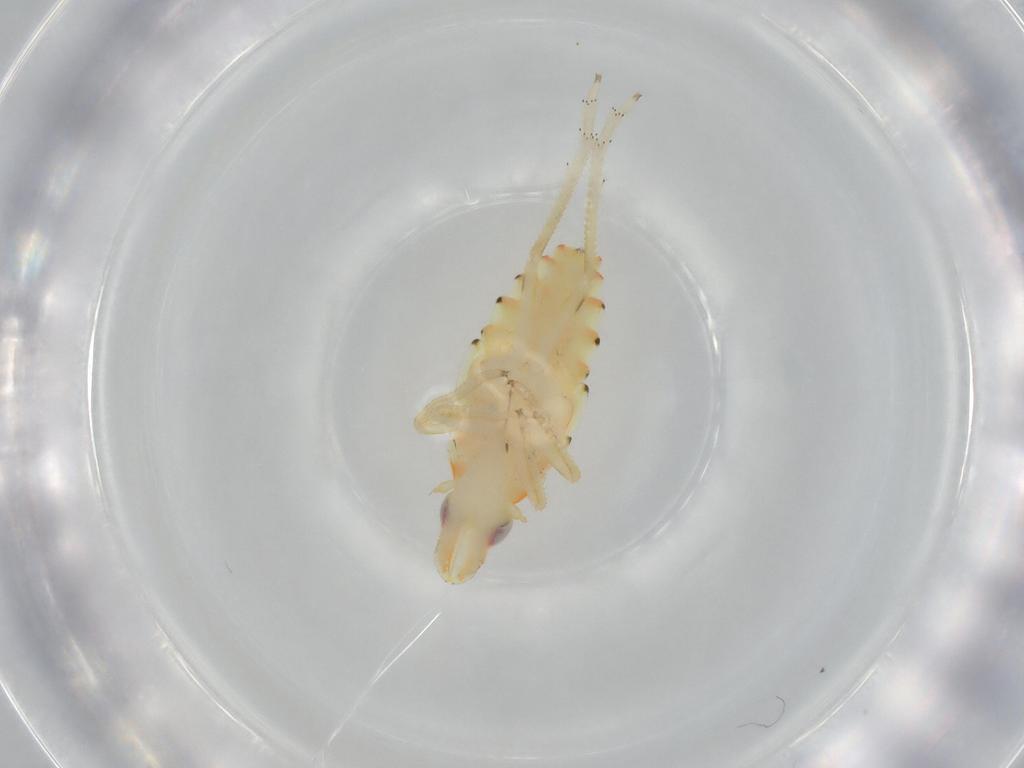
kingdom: Animalia
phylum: Arthropoda
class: Insecta
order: Hemiptera
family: Tropiduchidae
